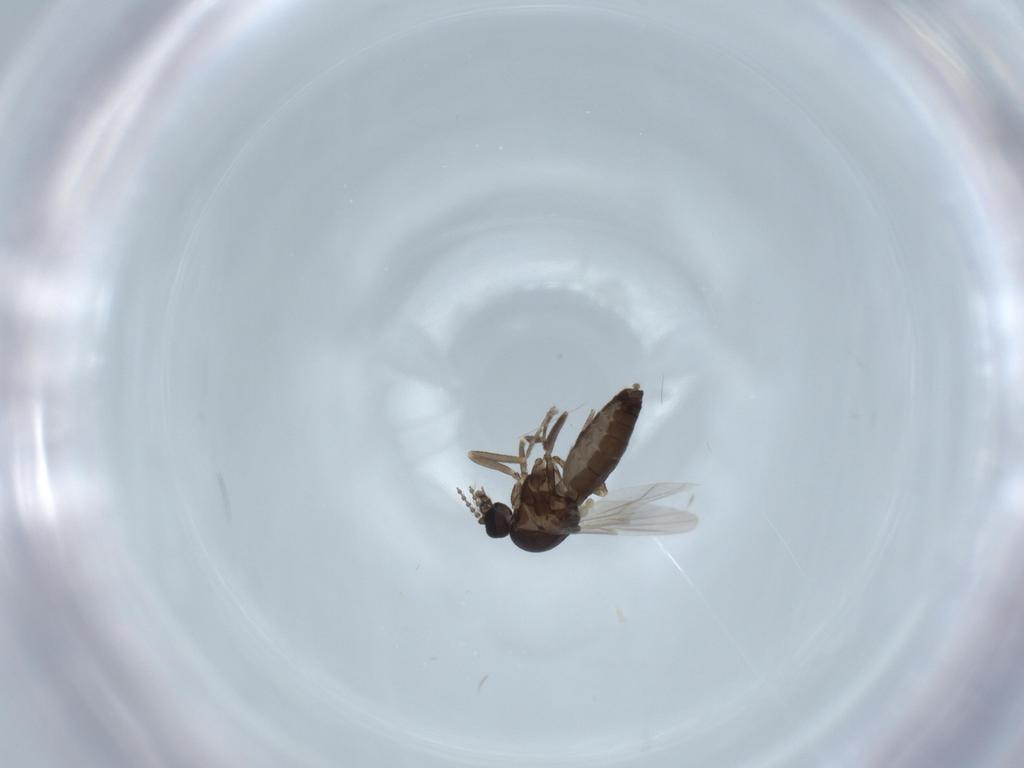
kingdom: Animalia
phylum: Arthropoda
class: Insecta
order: Diptera
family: Ceratopogonidae
